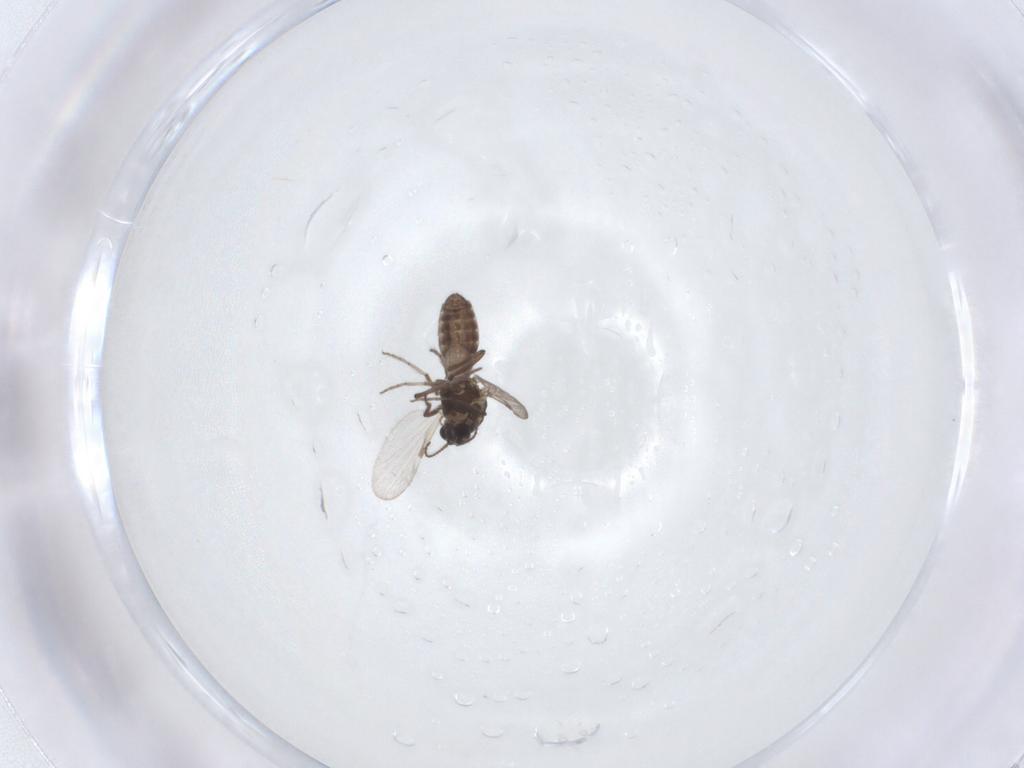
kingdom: Animalia
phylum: Arthropoda
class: Insecta
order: Diptera
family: Ceratopogonidae
